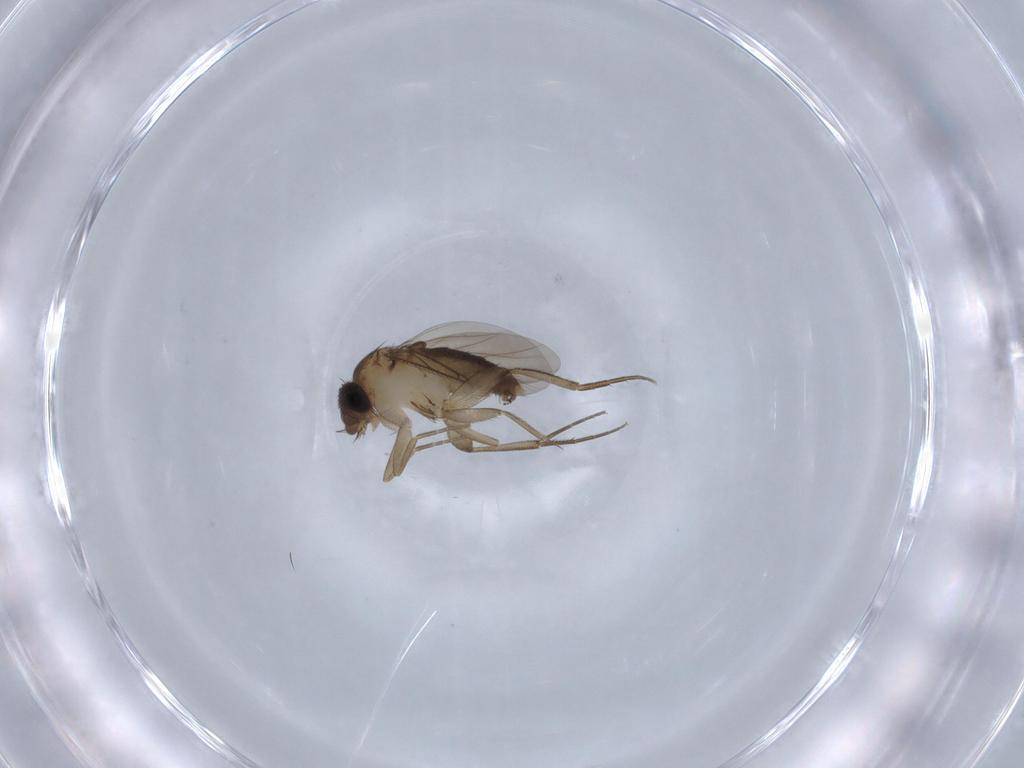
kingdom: Animalia
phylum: Arthropoda
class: Insecta
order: Diptera
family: Phoridae
